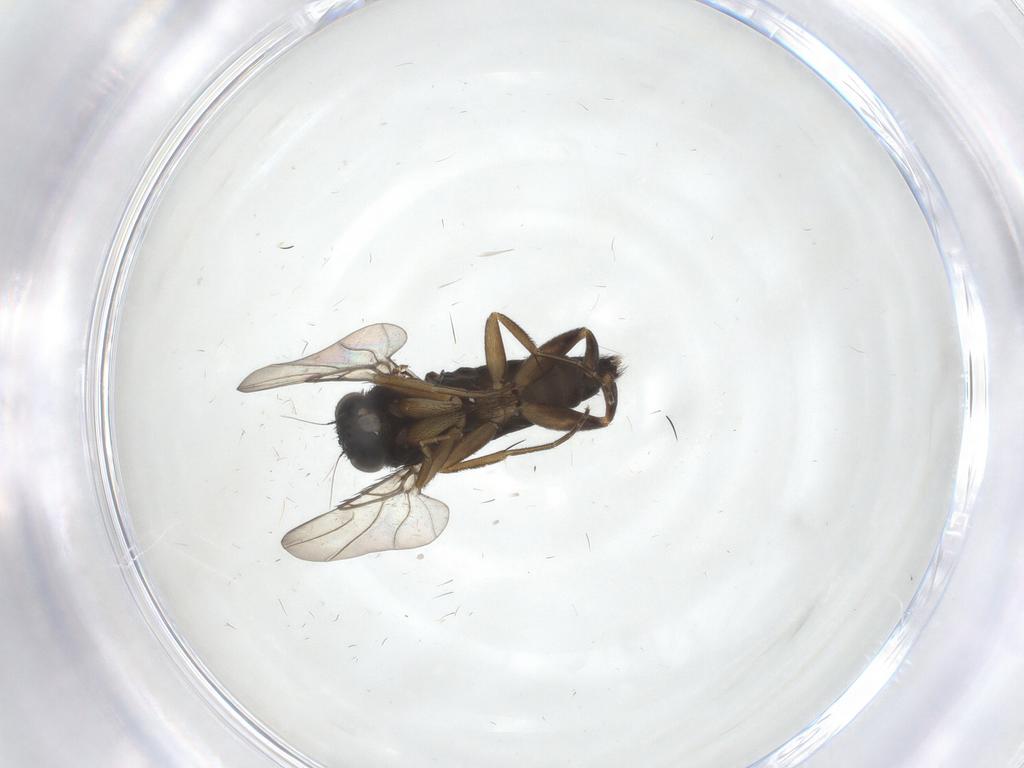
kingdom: Animalia
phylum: Arthropoda
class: Insecta
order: Diptera
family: Phoridae
